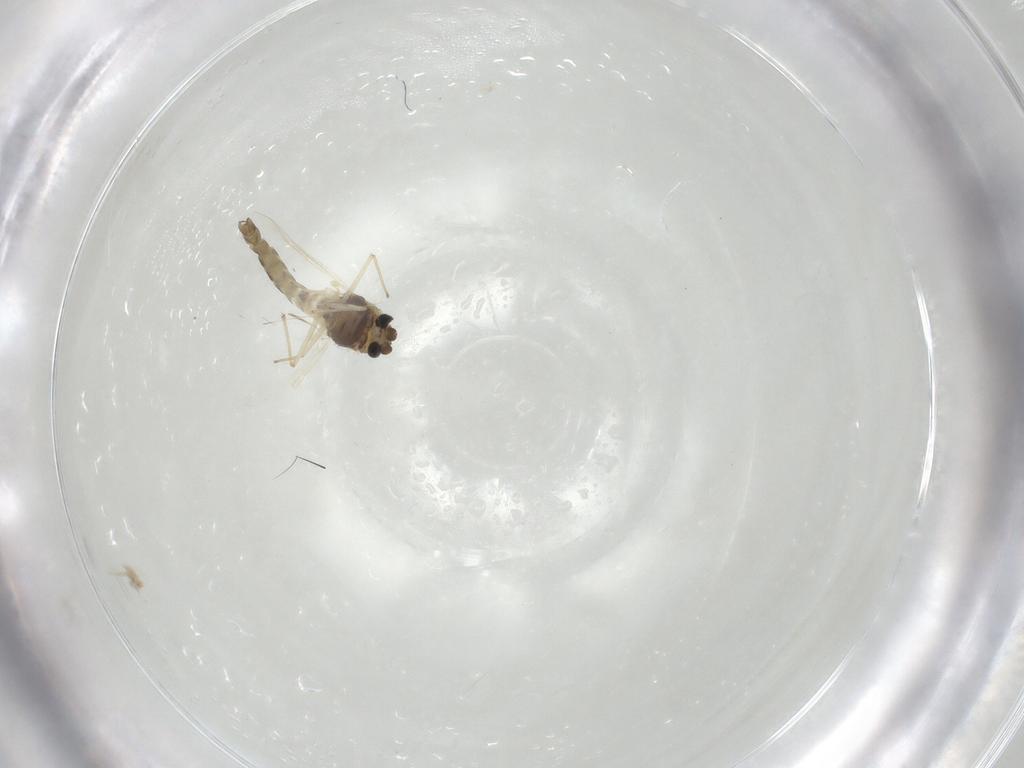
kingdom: Animalia
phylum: Arthropoda
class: Insecta
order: Diptera
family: Chironomidae
